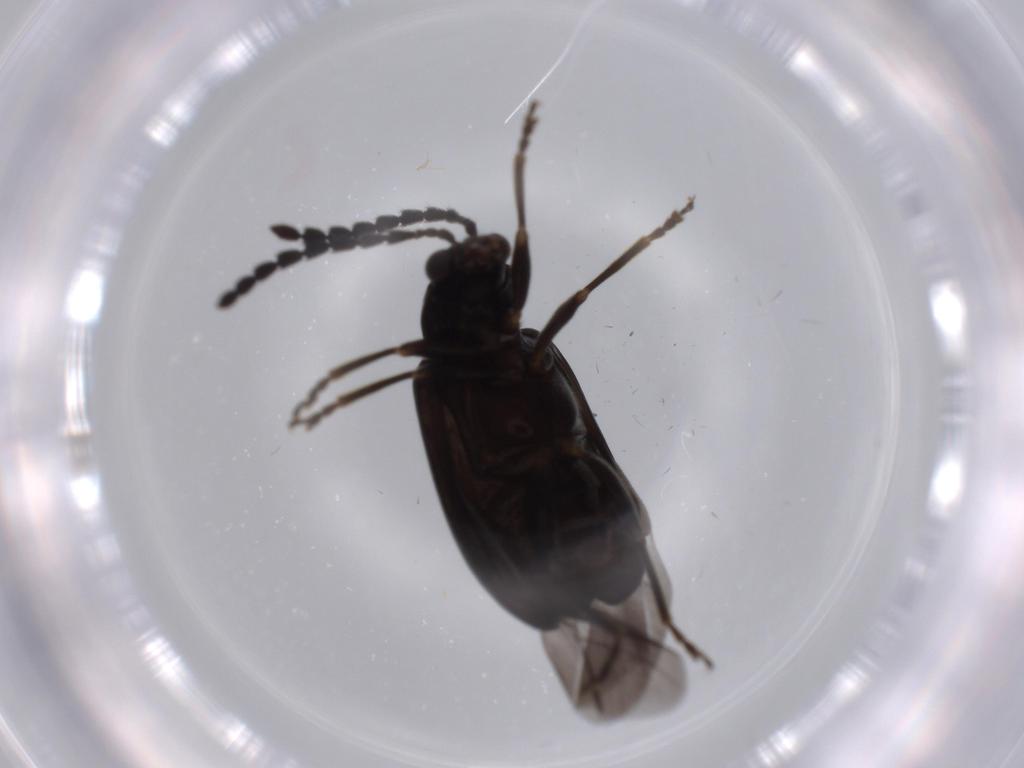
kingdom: Animalia
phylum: Arthropoda
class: Insecta
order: Coleoptera
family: Chrysomelidae
